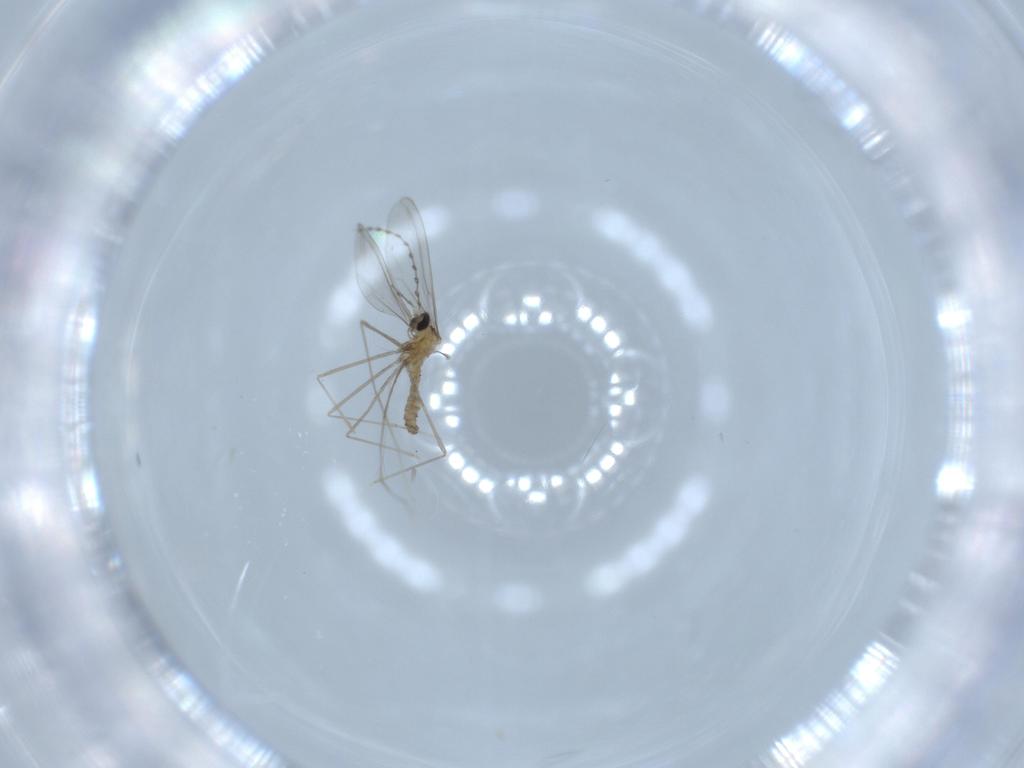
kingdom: Animalia
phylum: Arthropoda
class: Insecta
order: Diptera
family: Cecidomyiidae
